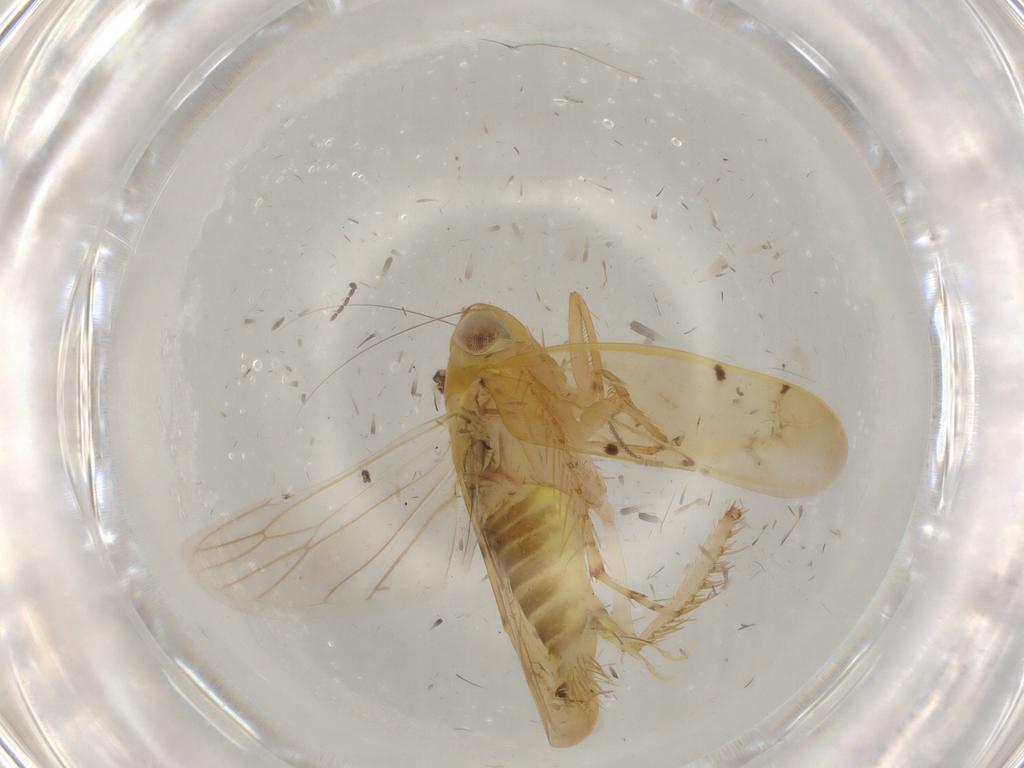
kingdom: Animalia
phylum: Arthropoda
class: Insecta
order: Hemiptera
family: Cicadellidae
